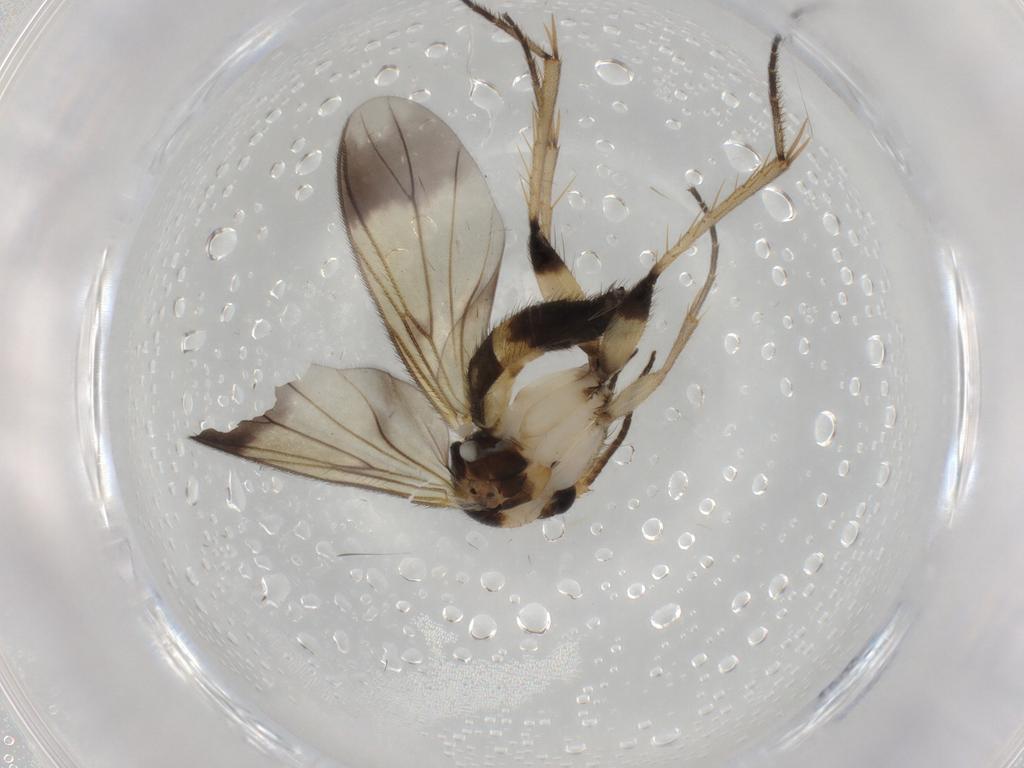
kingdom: Animalia
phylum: Arthropoda
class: Insecta
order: Diptera
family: Mycetophilidae
